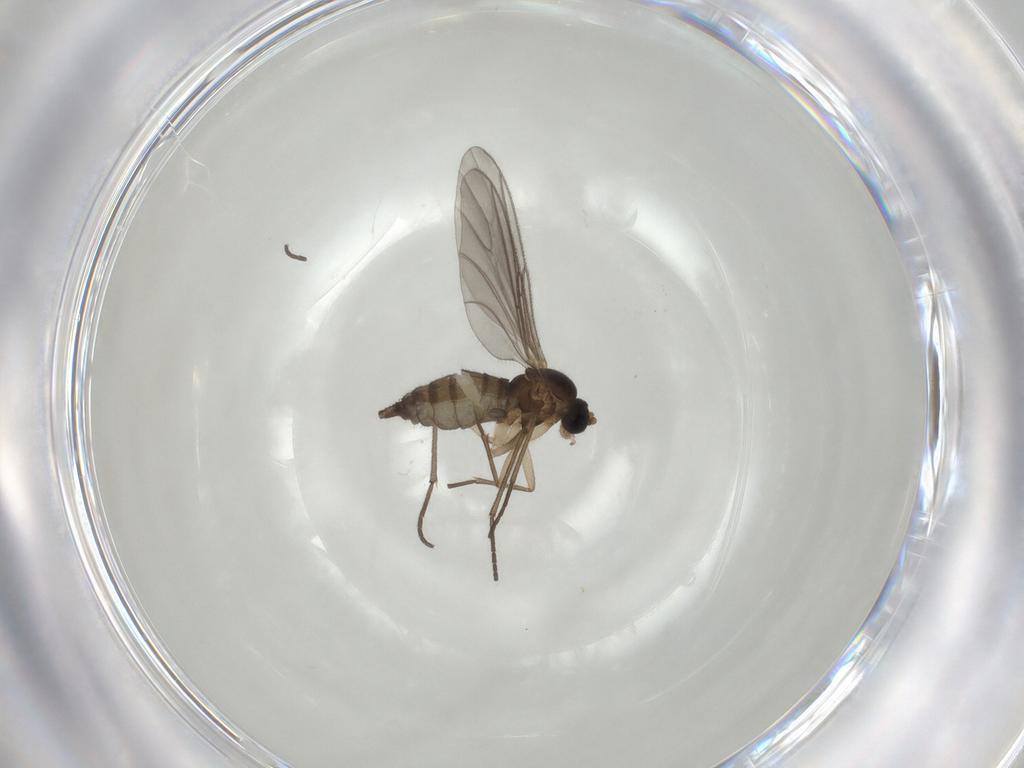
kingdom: Animalia
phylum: Arthropoda
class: Insecta
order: Diptera
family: Sciaridae
